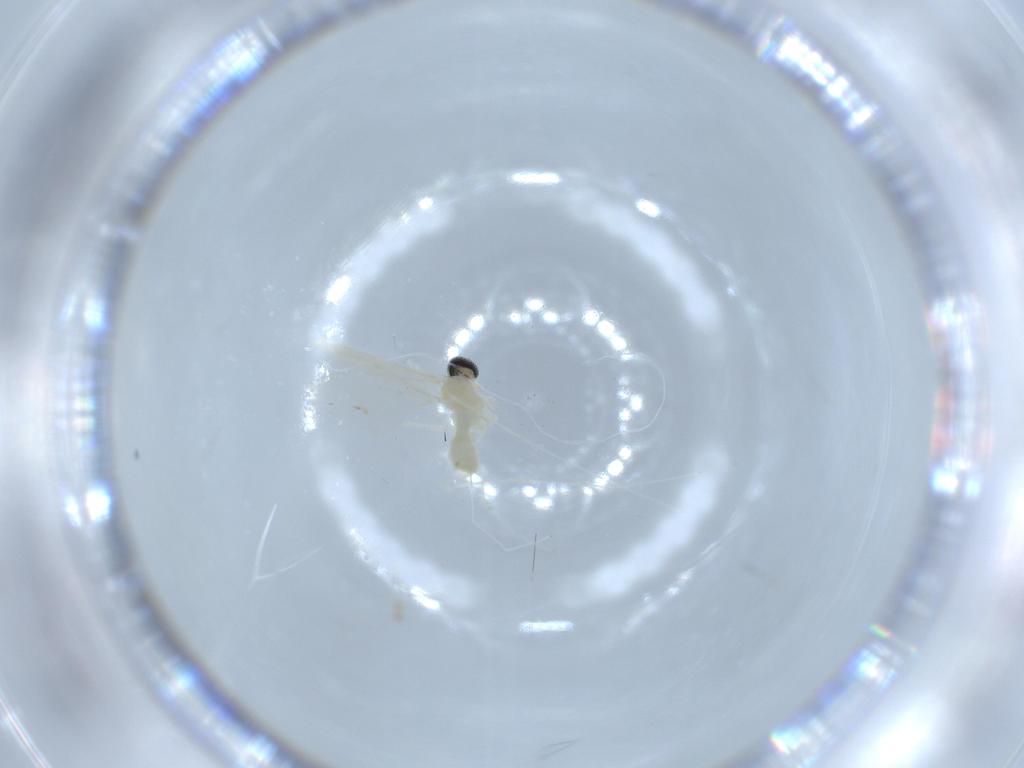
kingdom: Animalia
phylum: Arthropoda
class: Insecta
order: Diptera
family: Cecidomyiidae
